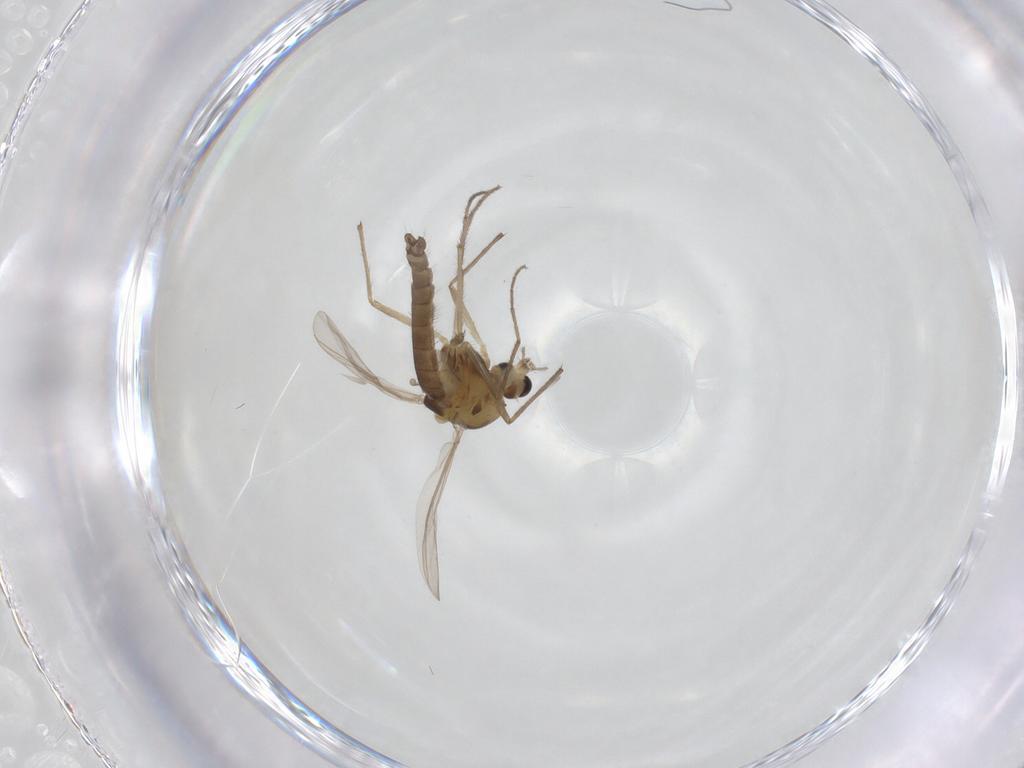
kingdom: Animalia
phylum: Arthropoda
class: Insecta
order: Diptera
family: Chironomidae
